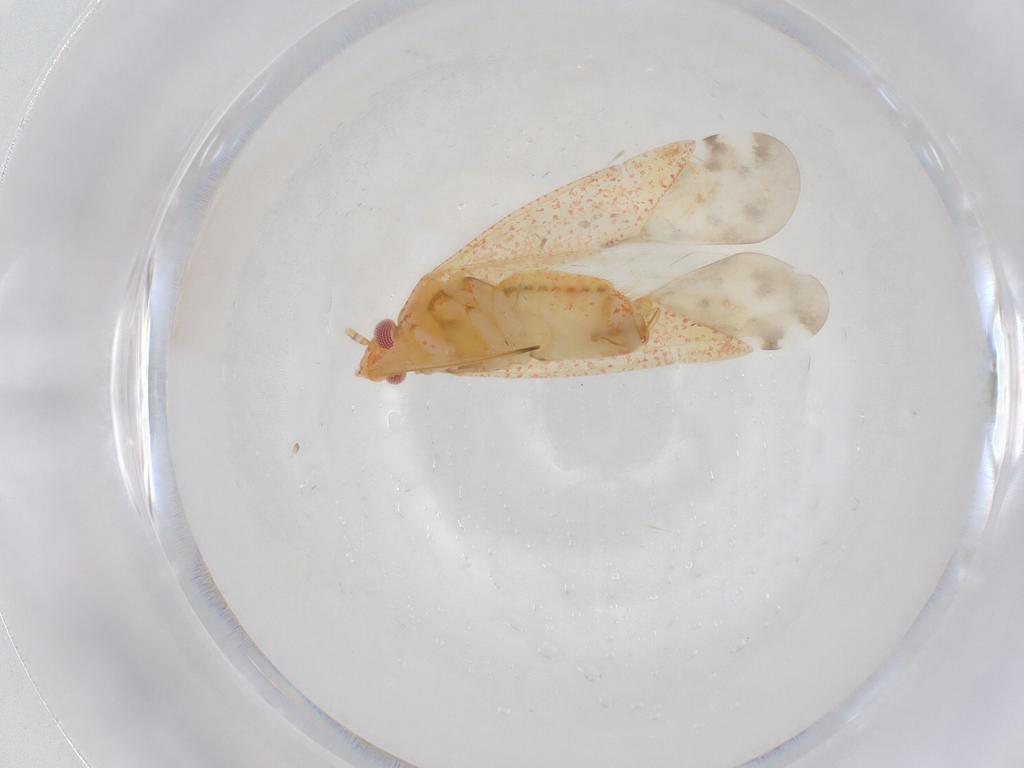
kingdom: Animalia
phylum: Arthropoda
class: Insecta
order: Hemiptera
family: Miridae
